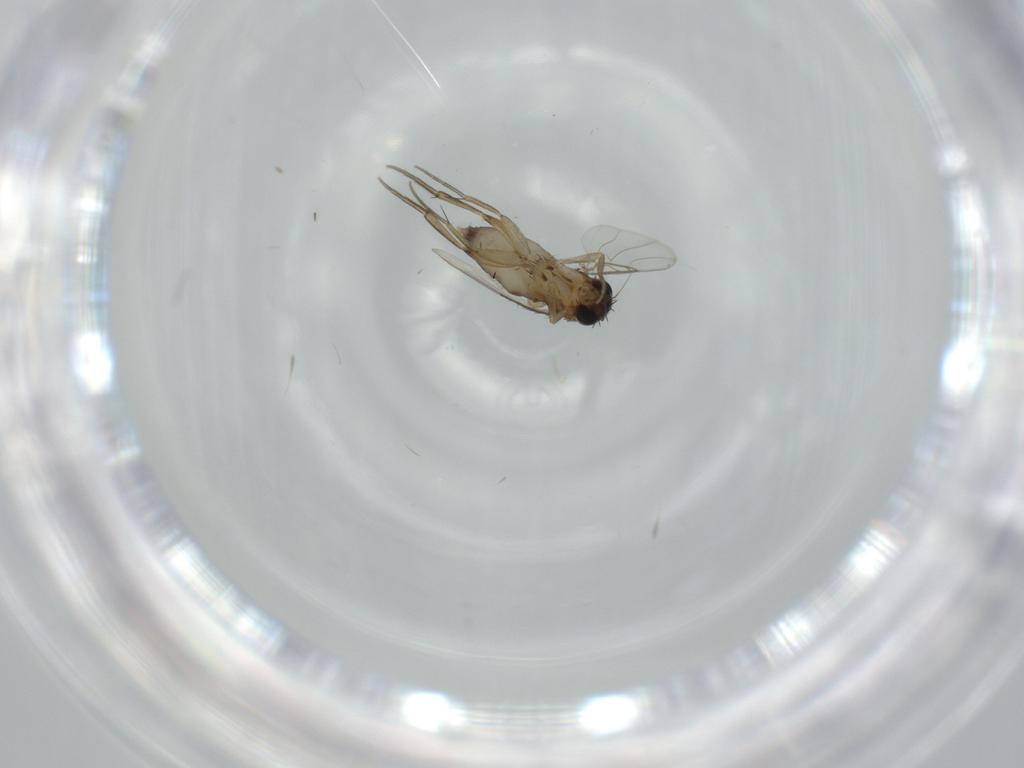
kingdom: Animalia
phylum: Arthropoda
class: Insecta
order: Diptera
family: Phoridae
